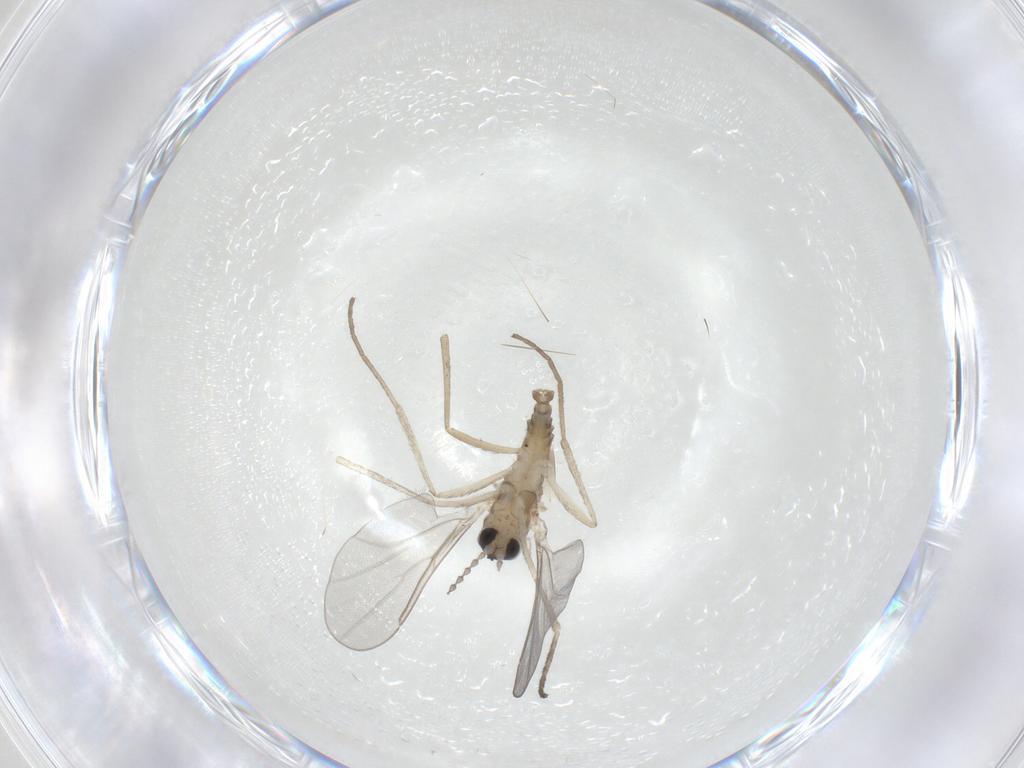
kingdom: Animalia
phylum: Arthropoda
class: Insecta
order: Diptera
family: Cecidomyiidae
